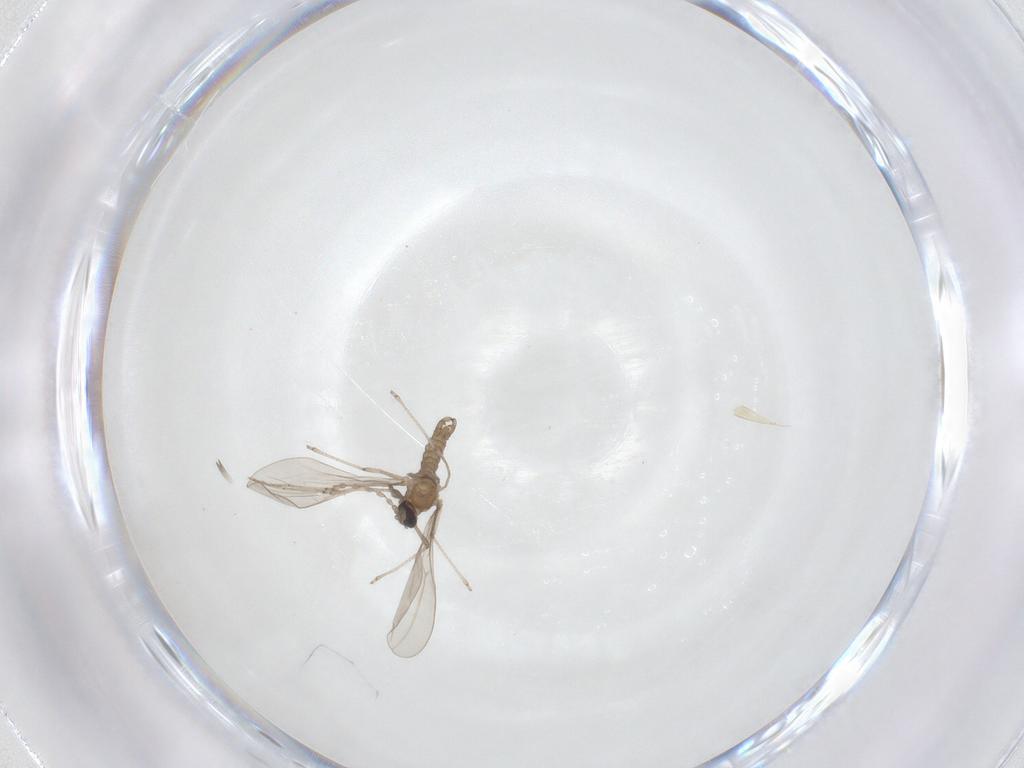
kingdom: Animalia
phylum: Arthropoda
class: Insecta
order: Diptera
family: Cecidomyiidae
